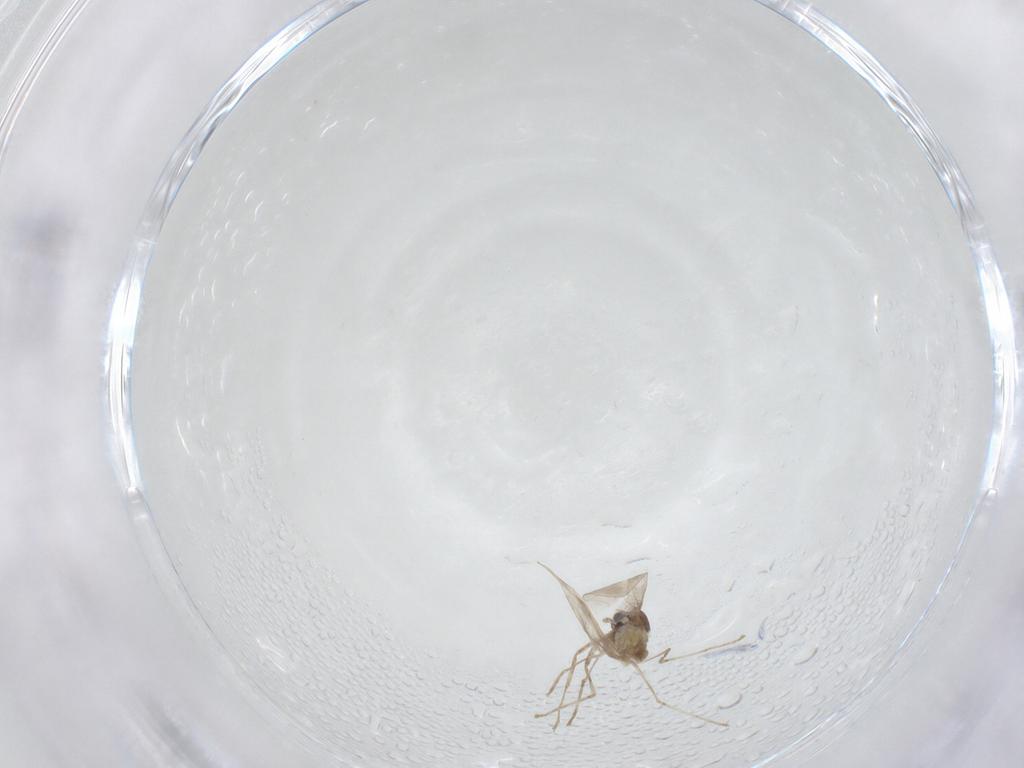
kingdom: Animalia
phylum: Arthropoda
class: Insecta
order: Diptera
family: Cecidomyiidae
